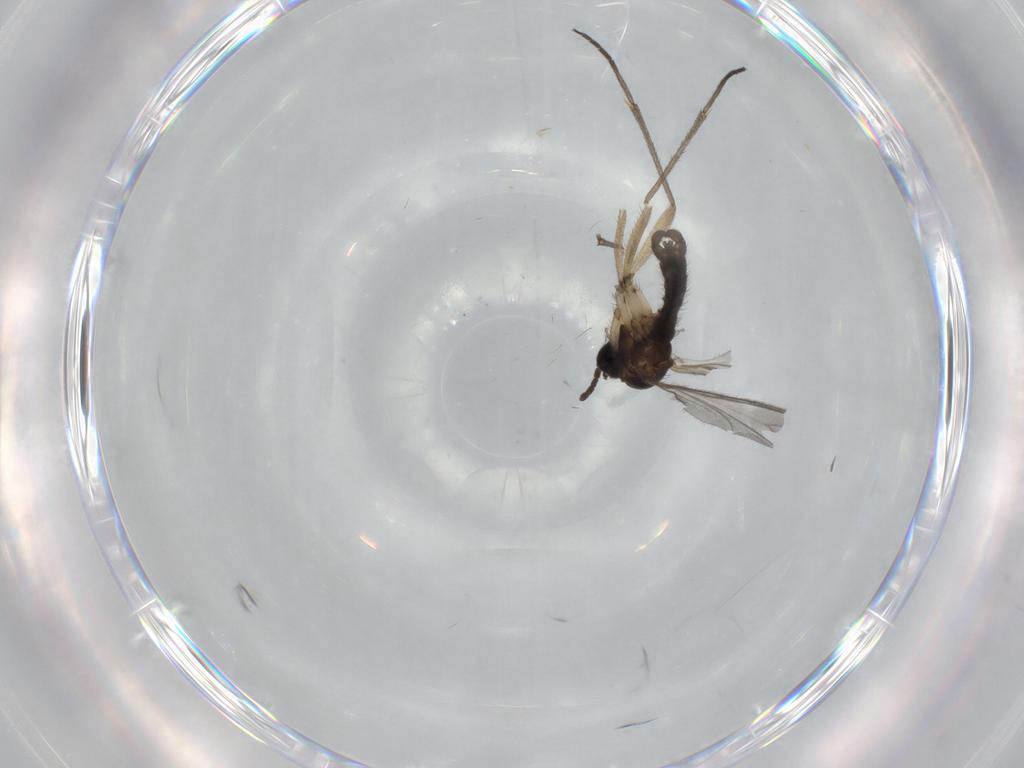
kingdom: Animalia
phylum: Arthropoda
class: Insecta
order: Diptera
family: Sciaridae
